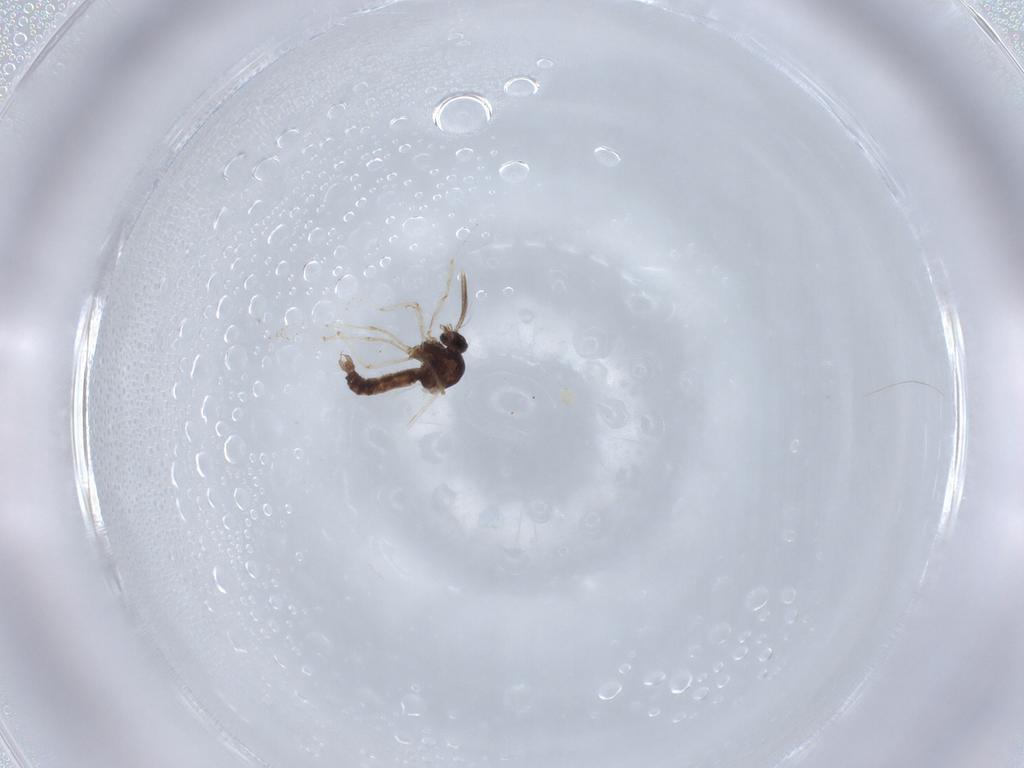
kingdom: Animalia
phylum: Arthropoda
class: Insecta
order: Diptera
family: Ceratopogonidae
